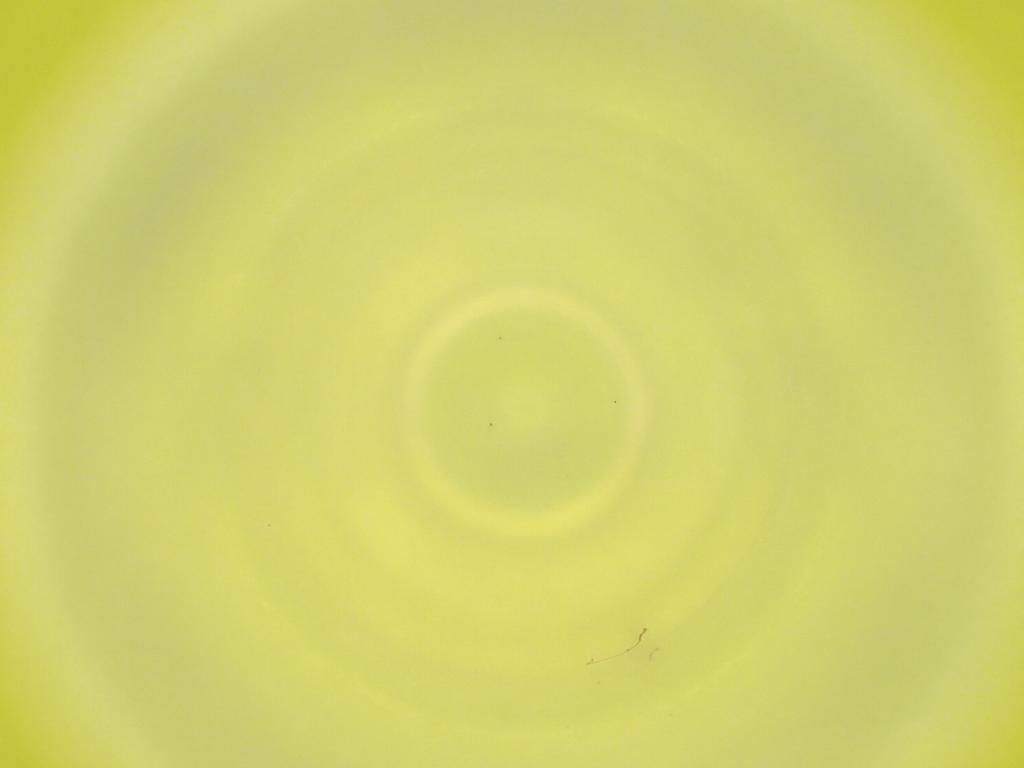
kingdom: Animalia
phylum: Arthropoda
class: Insecta
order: Diptera
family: Cecidomyiidae
